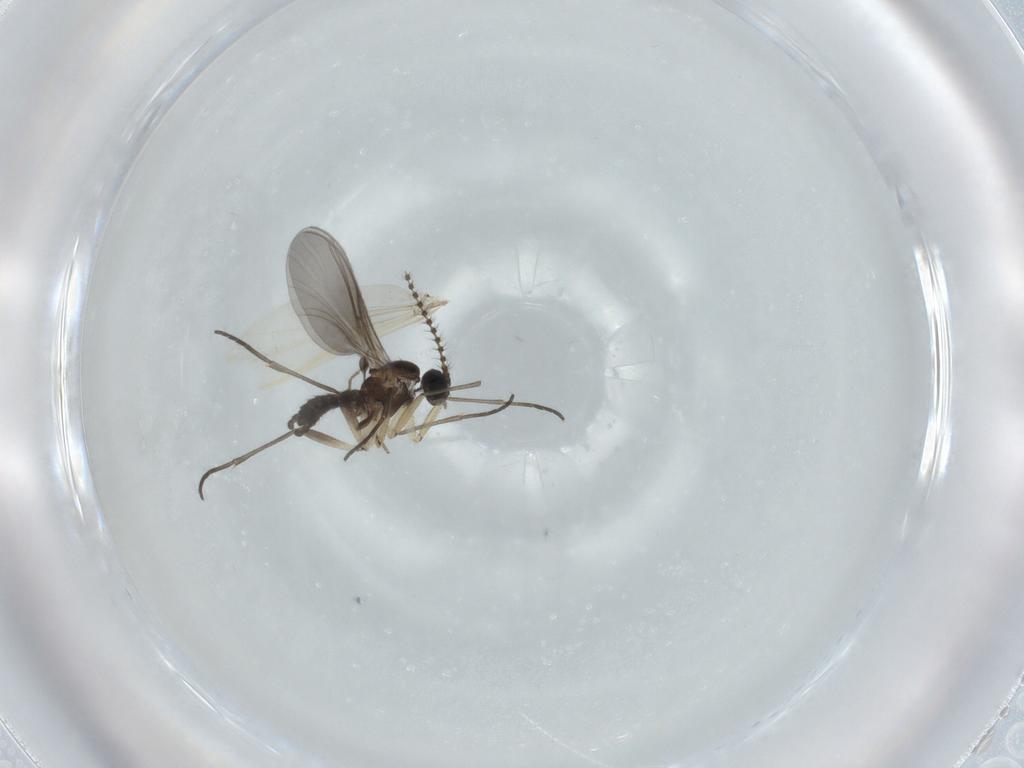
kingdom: Animalia
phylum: Arthropoda
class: Insecta
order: Diptera
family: Sciaridae
